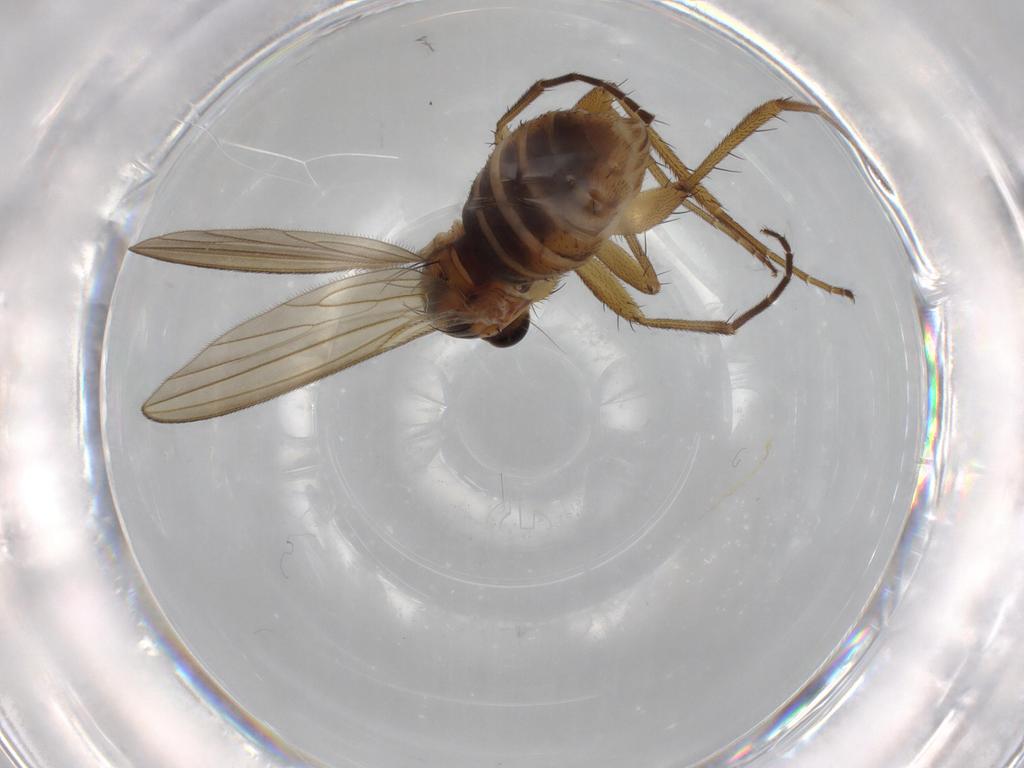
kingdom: Animalia
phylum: Arthropoda
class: Insecta
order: Diptera
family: Lonchopteridae
